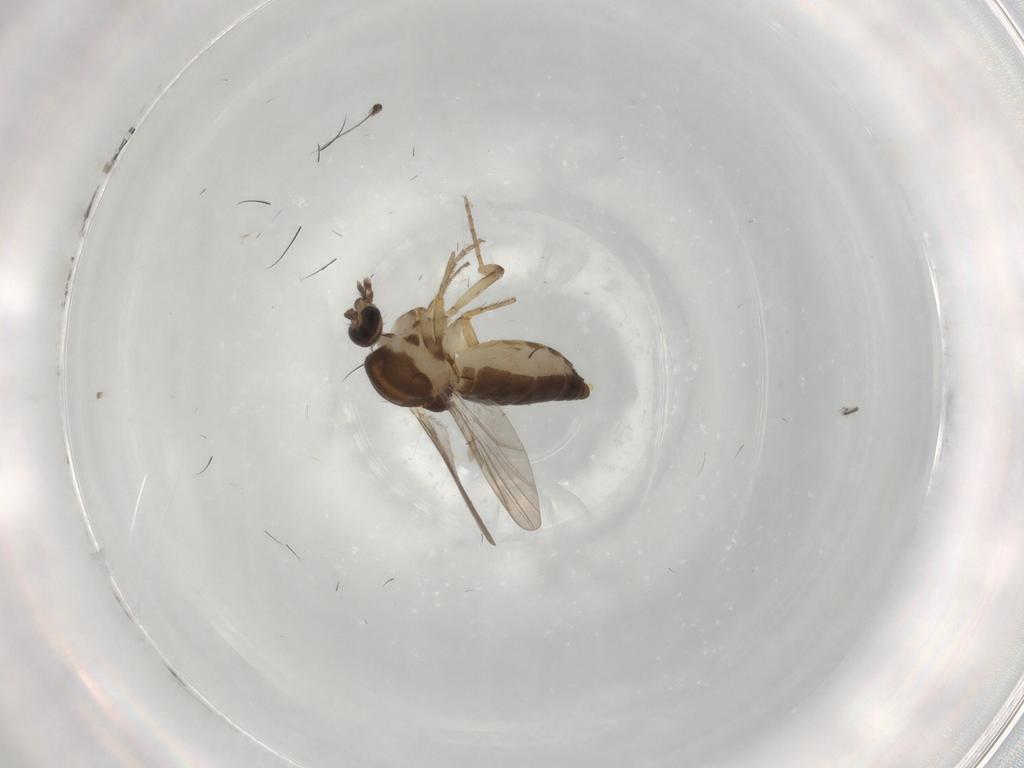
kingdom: Animalia
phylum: Arthropoda
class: Insecta
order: Diptera
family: Ceratopogonidae
